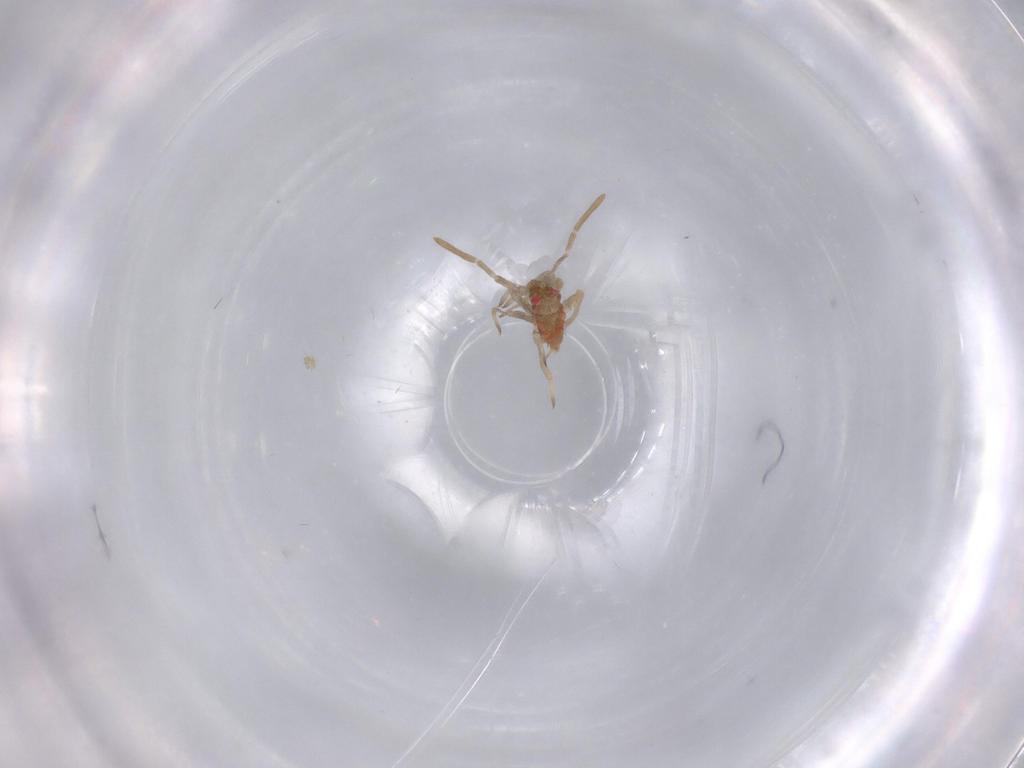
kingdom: Animalia
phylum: Arthropoda
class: Insecta
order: Hemiptera
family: Miridae
